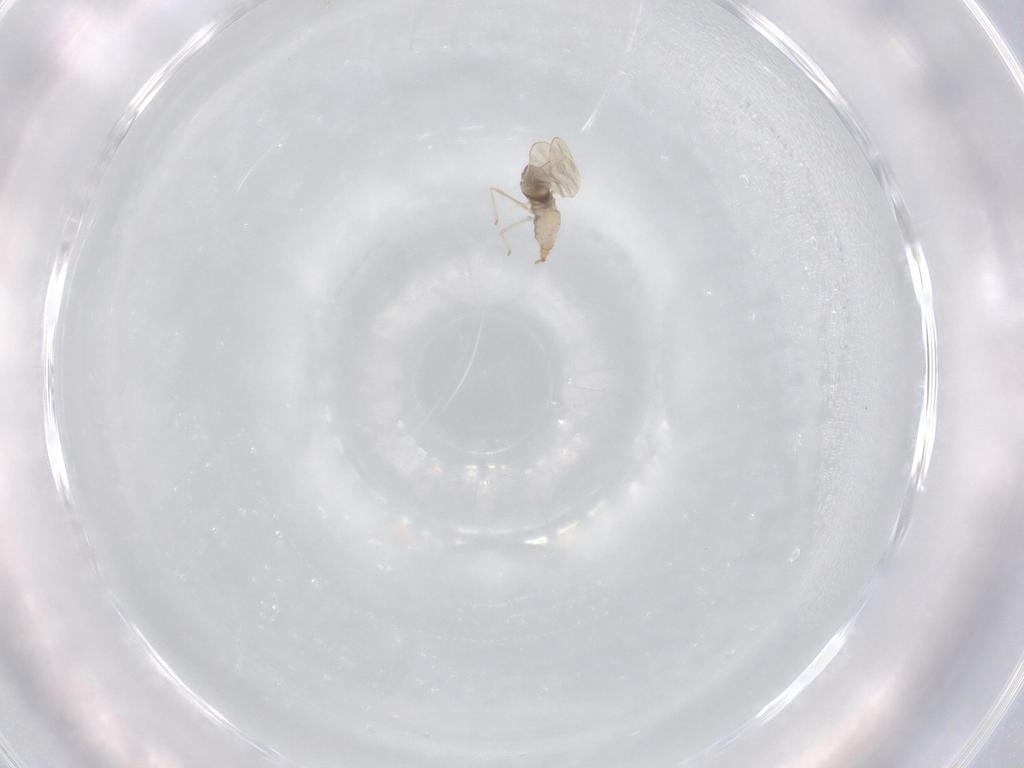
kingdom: Animalia
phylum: Arthropoda
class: Insecta
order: Diptera
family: Cecidomyiidae
